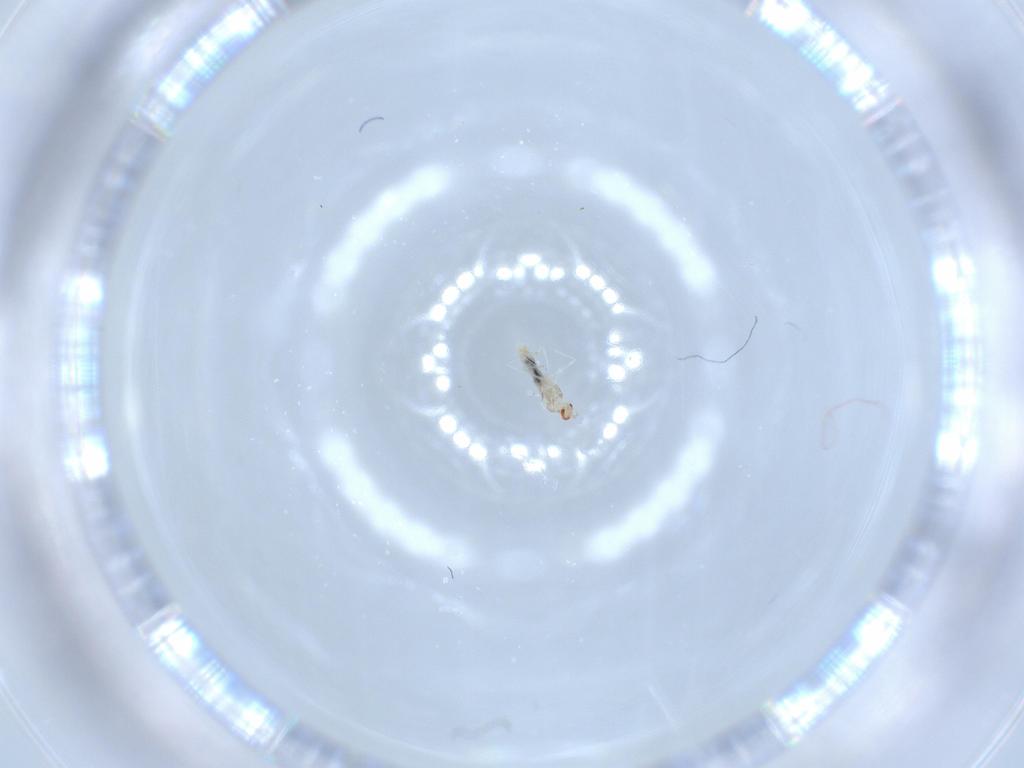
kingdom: Animalia
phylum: Arthropoda
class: Insecta
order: Diptera
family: Cecidomyiidae
